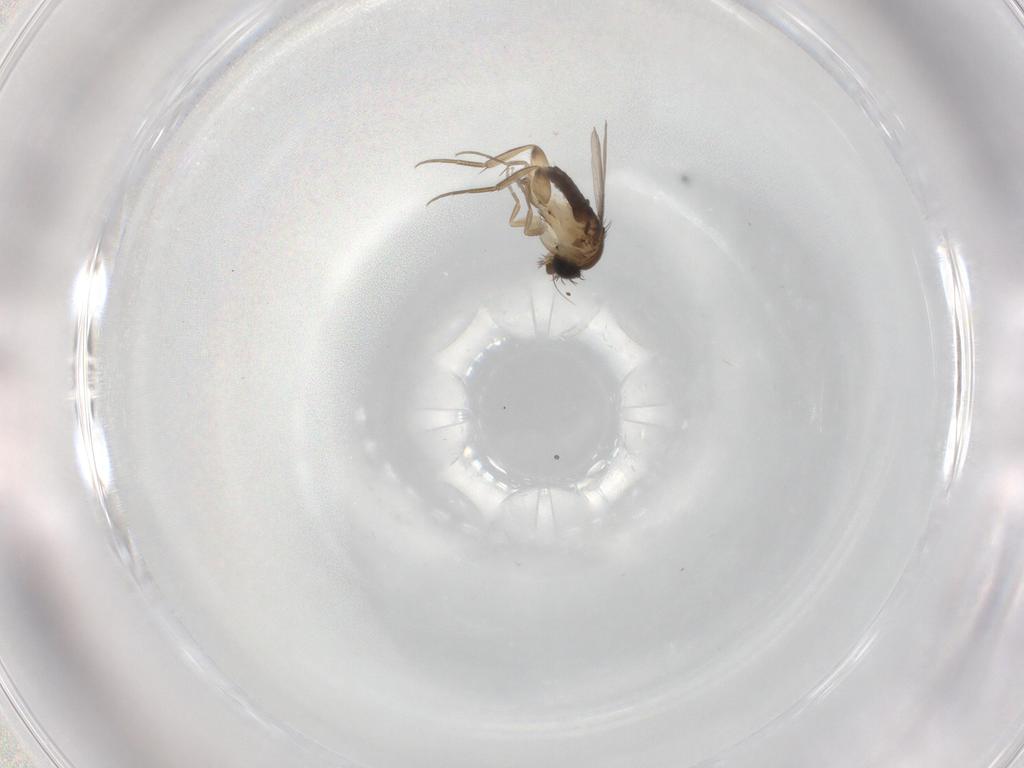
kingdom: Animalia
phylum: Arthropoda
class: Insecta
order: Diptera
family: Phoridae
